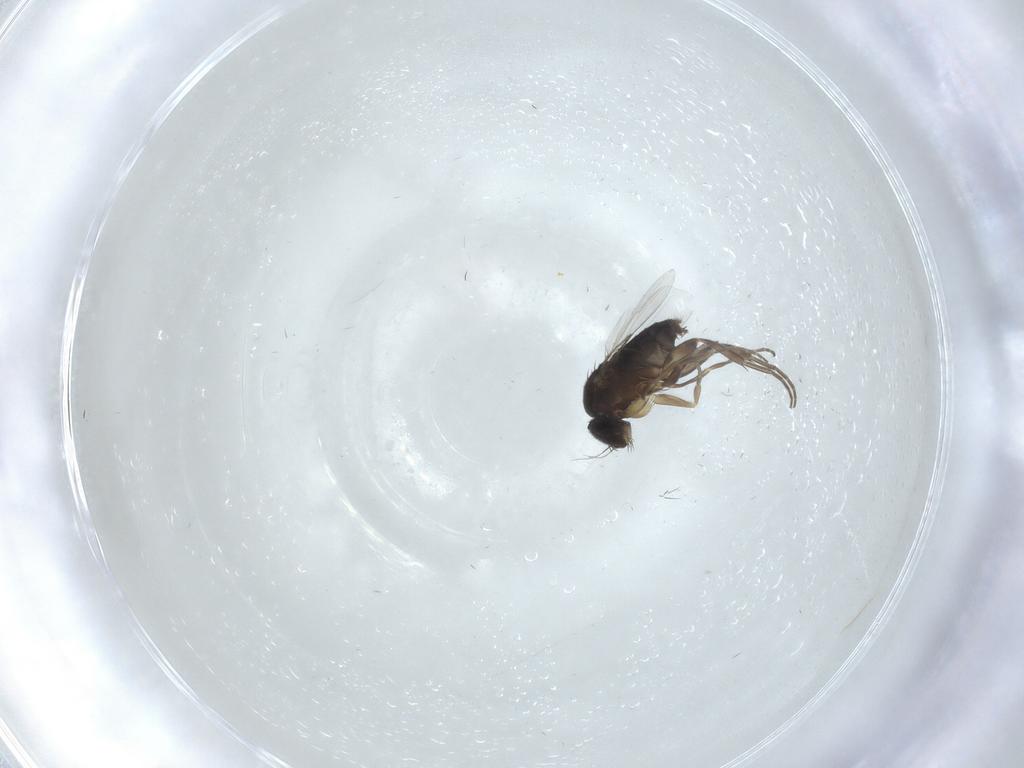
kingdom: Animalia
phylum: Arthropoda
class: Insecta
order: Diptera
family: Phoridae
